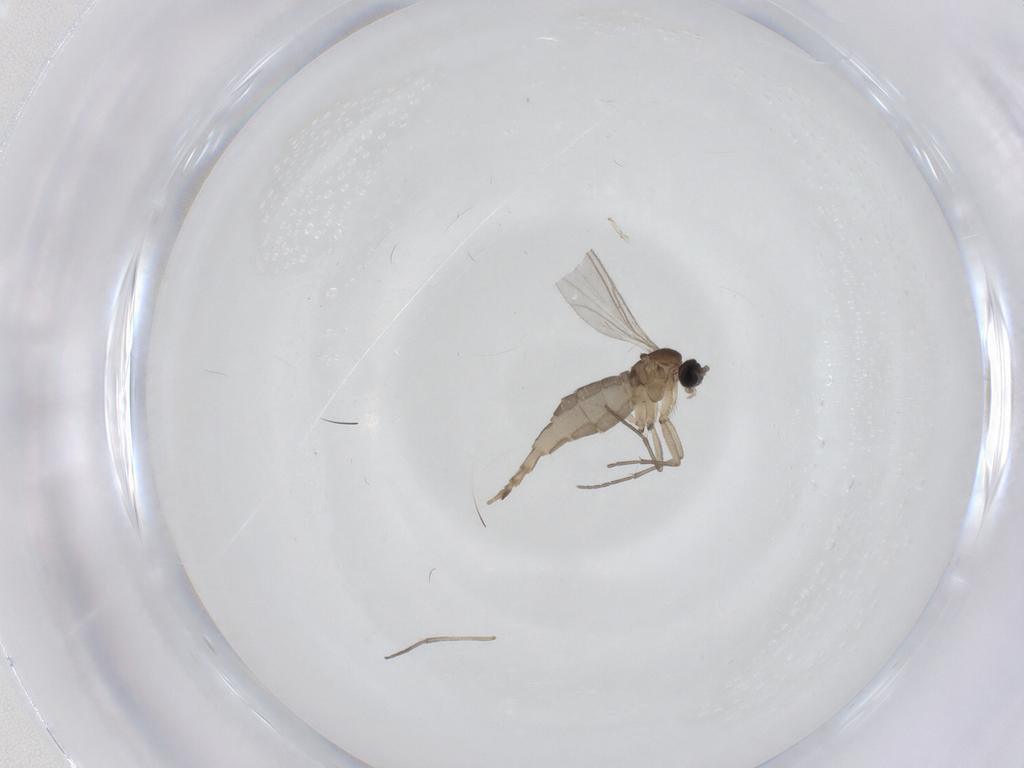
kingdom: Animalia
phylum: Arthropoda
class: Insecta
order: Diptera
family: Sciaridae
